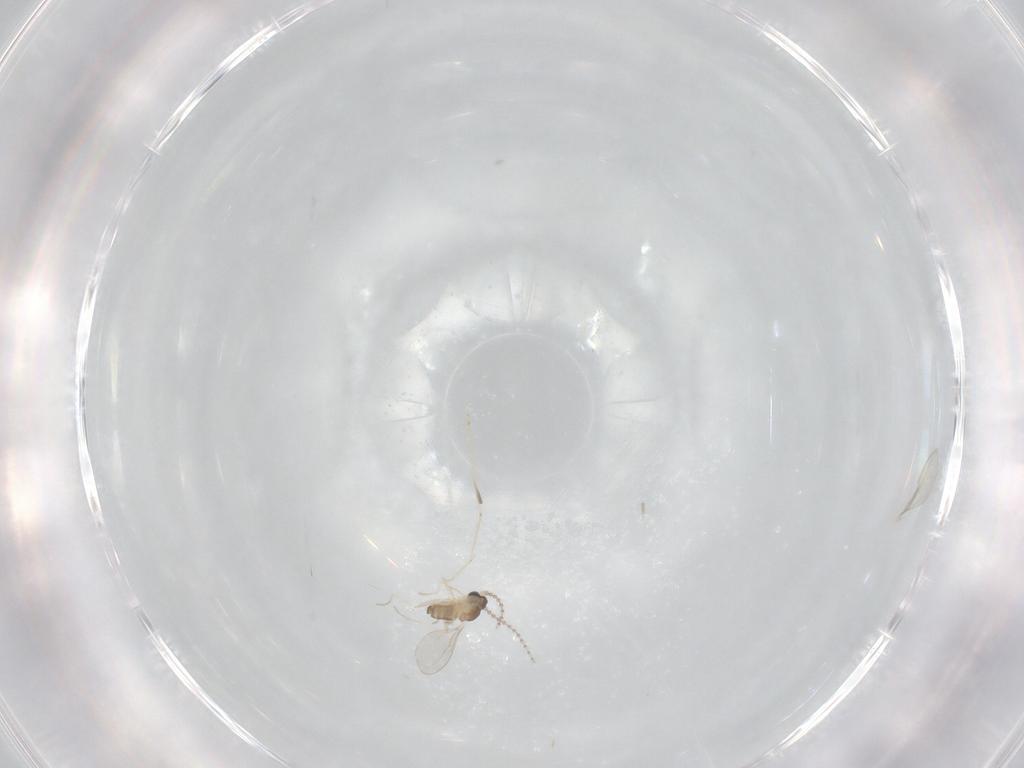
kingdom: Animalia
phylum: Arthropoda
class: Insecta
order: Diptera
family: Cecidomyiidae
